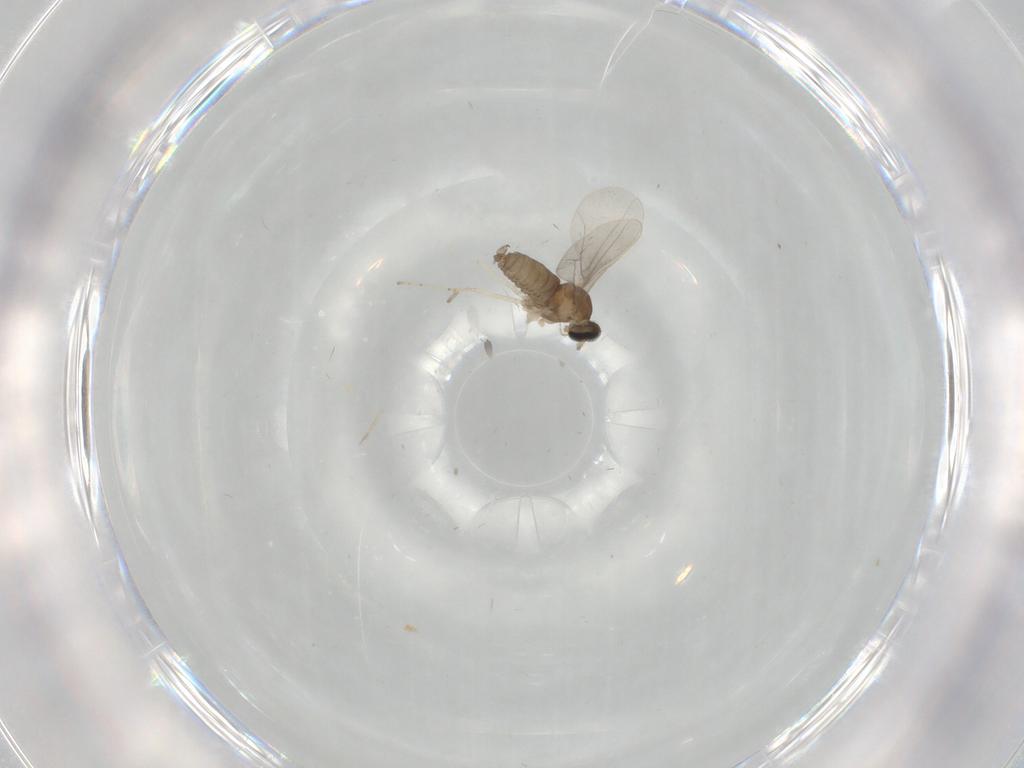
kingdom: Animalia
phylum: Arthropoda
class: Insecta
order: Diptera
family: Cecidomyiidae
